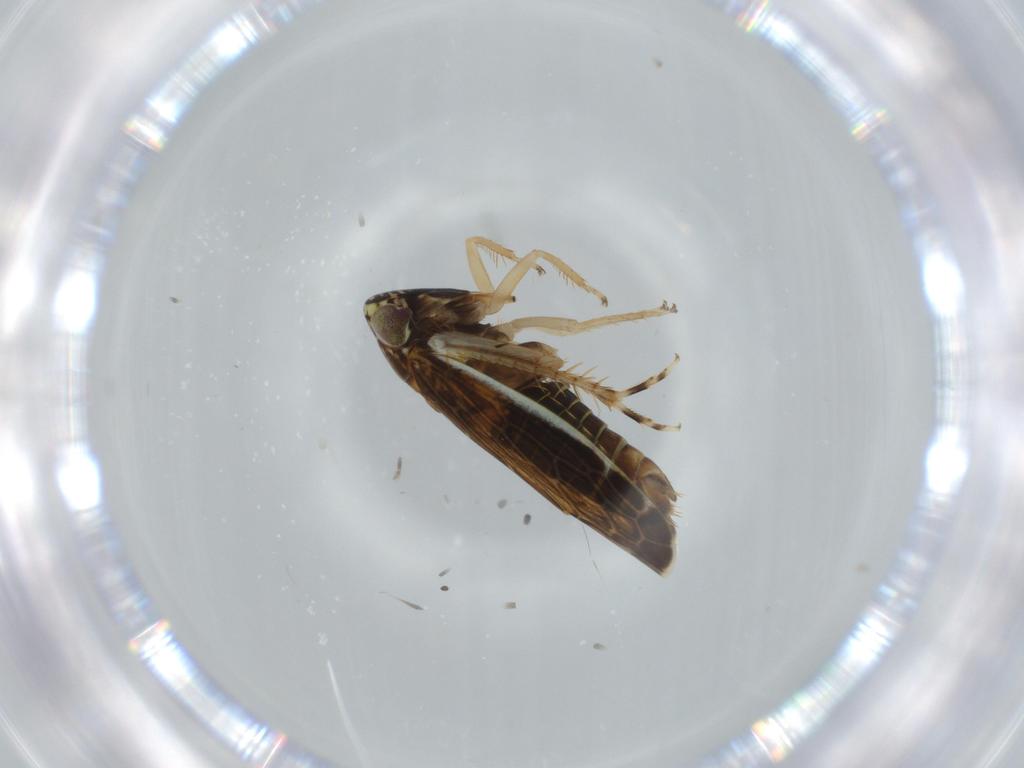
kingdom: Animalia
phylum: Arthropoda
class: Insecta
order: Hemiptera
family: Cicadellidae
